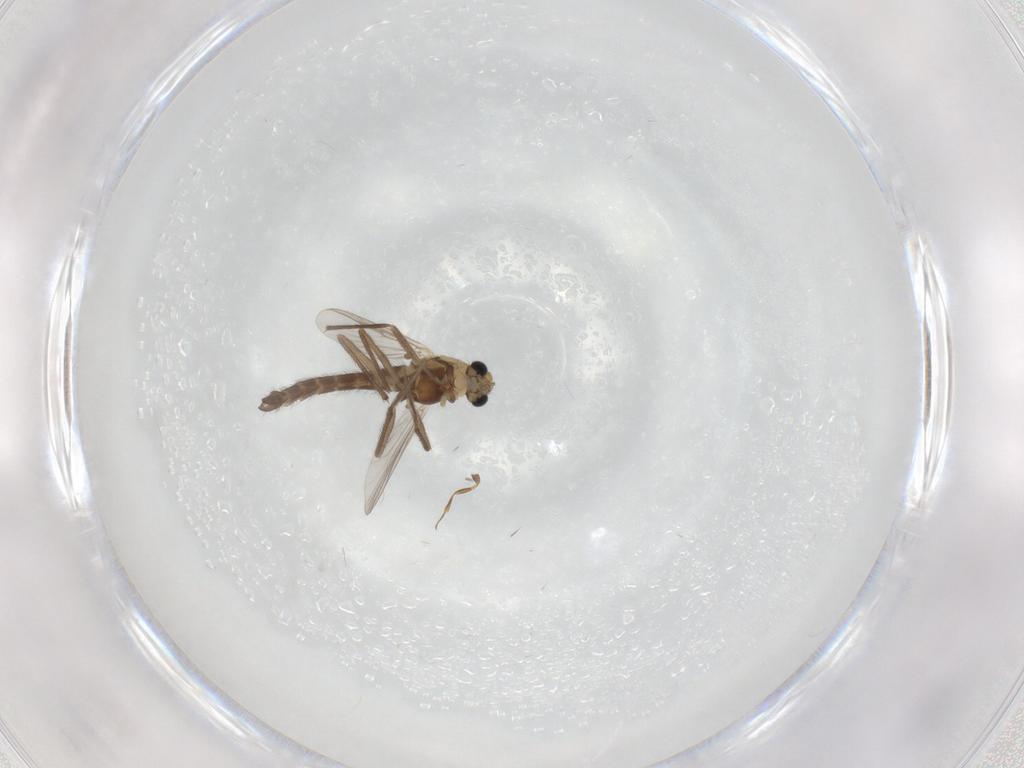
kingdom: Animalia
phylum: Arthropoda
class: Insecta
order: Diptera
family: Chironomidae
